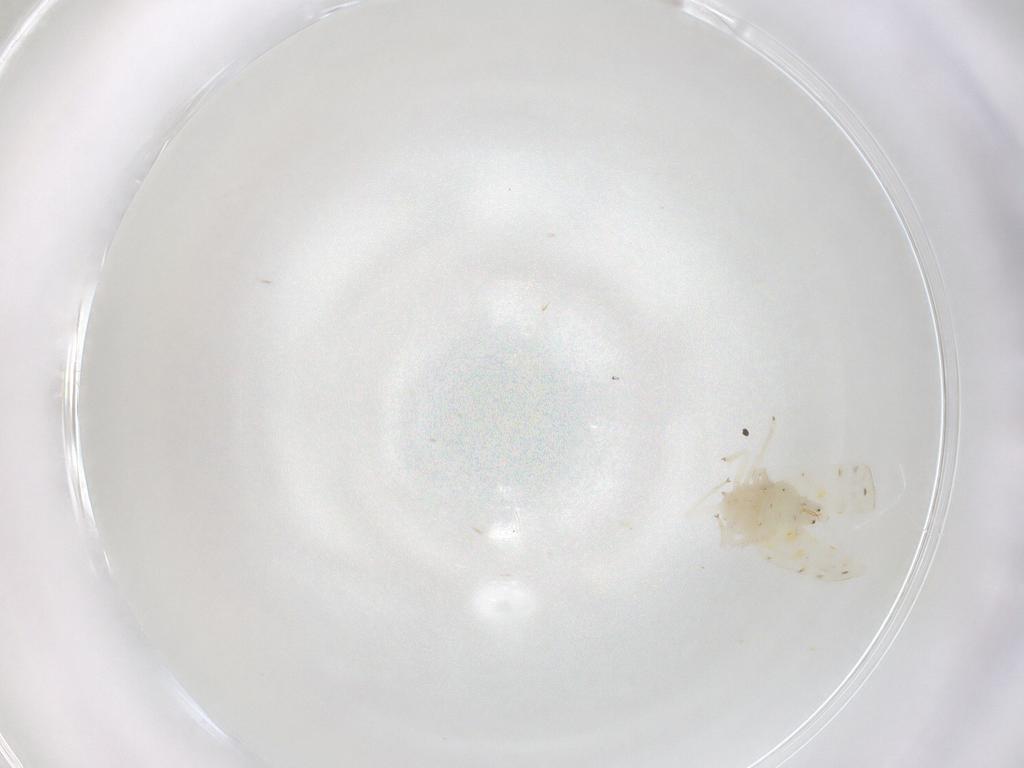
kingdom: Animalia
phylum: Arthropoda
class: Insecta
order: Hemiptera
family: Cicadellidae
